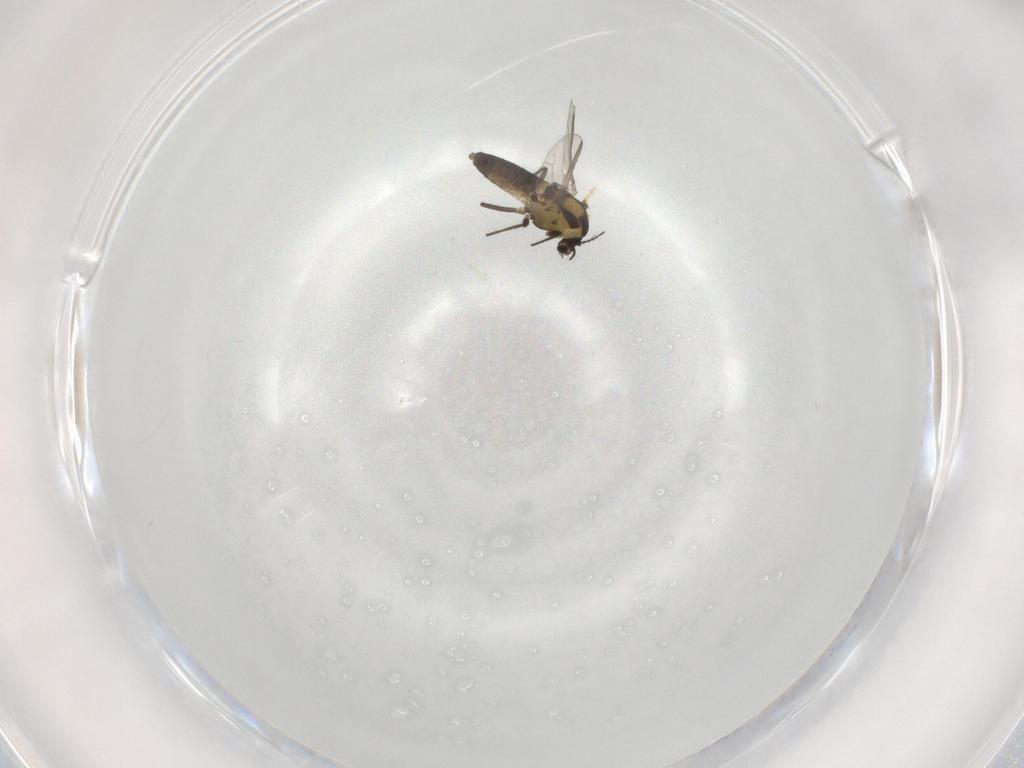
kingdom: Animalia
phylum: Arthropoda
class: Insecta
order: Diptera
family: Chironomidae
